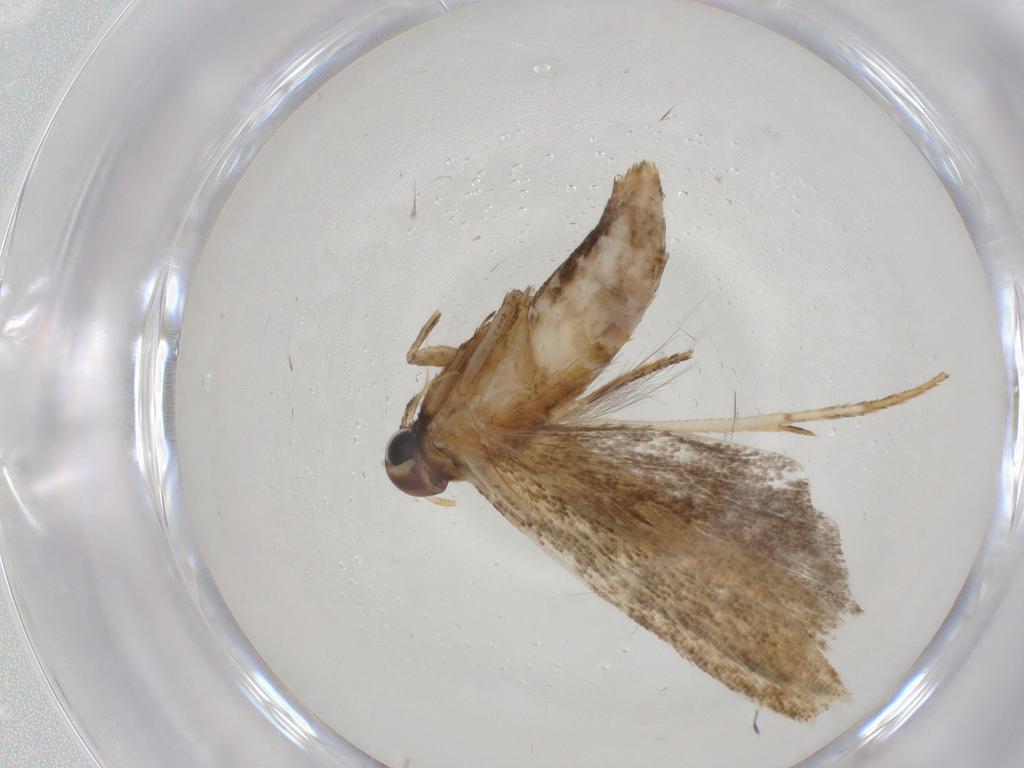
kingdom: Animalia
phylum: Arthropoda
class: Insecta
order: Lepidoptera
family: Gelechiidae
